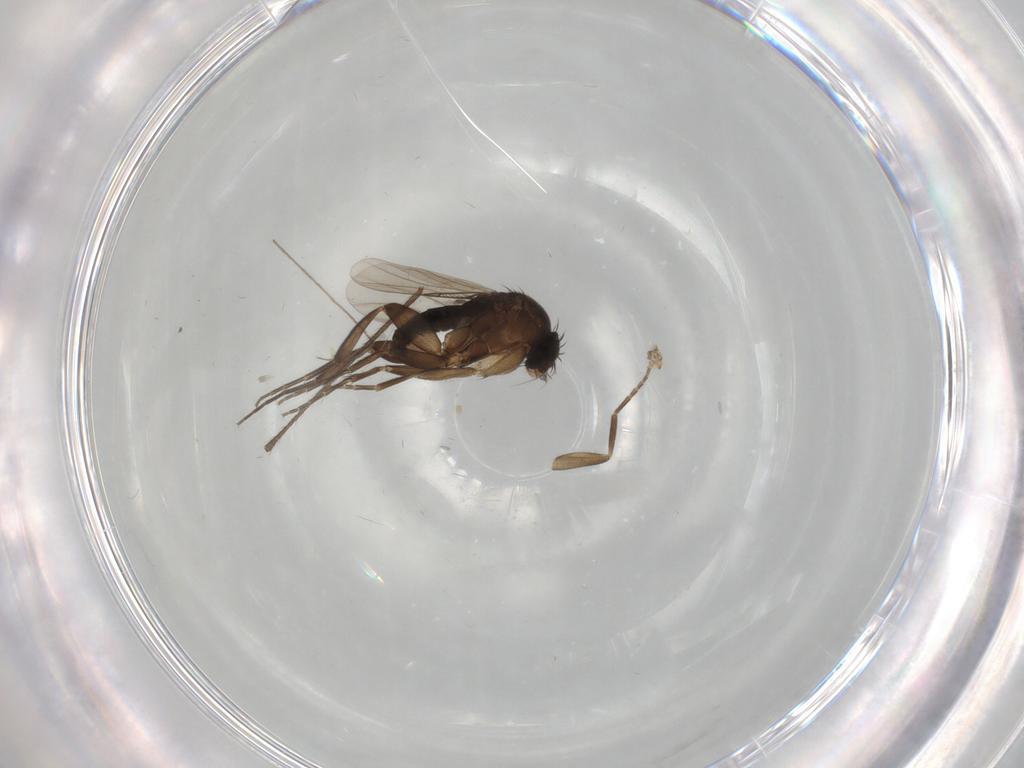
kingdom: Animalia
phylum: Arthropoda
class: Insecta
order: Diptera
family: Phoridae
